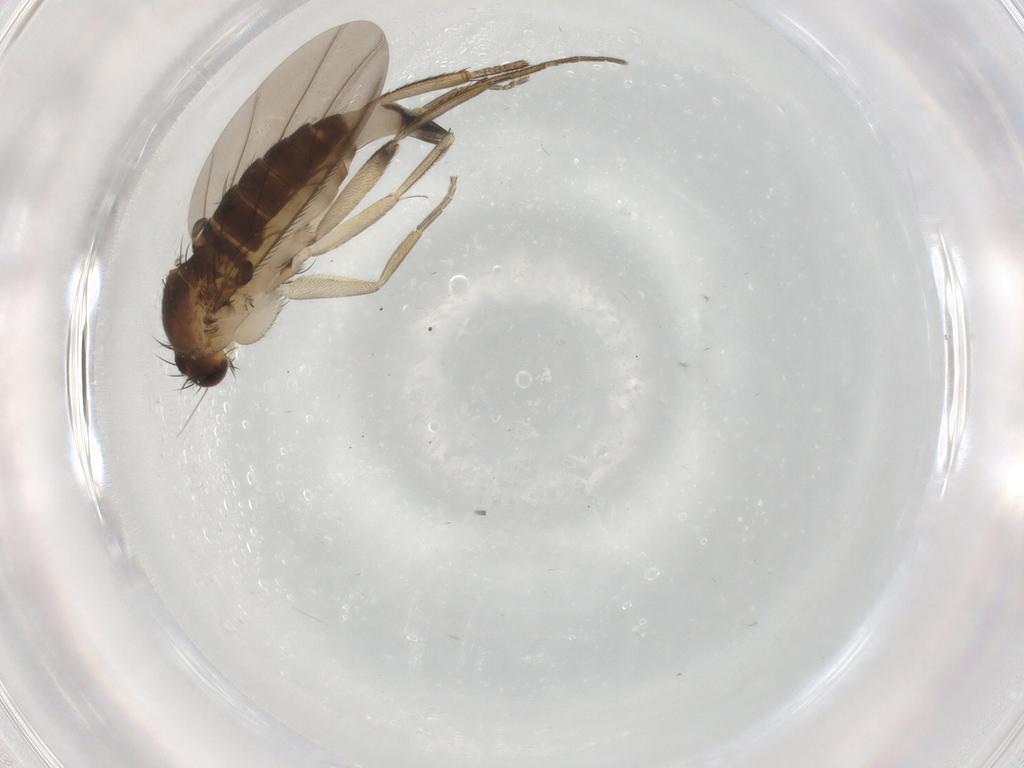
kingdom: Animalia
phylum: Arthropoda
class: Insecta
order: Diptera
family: Phoridae
